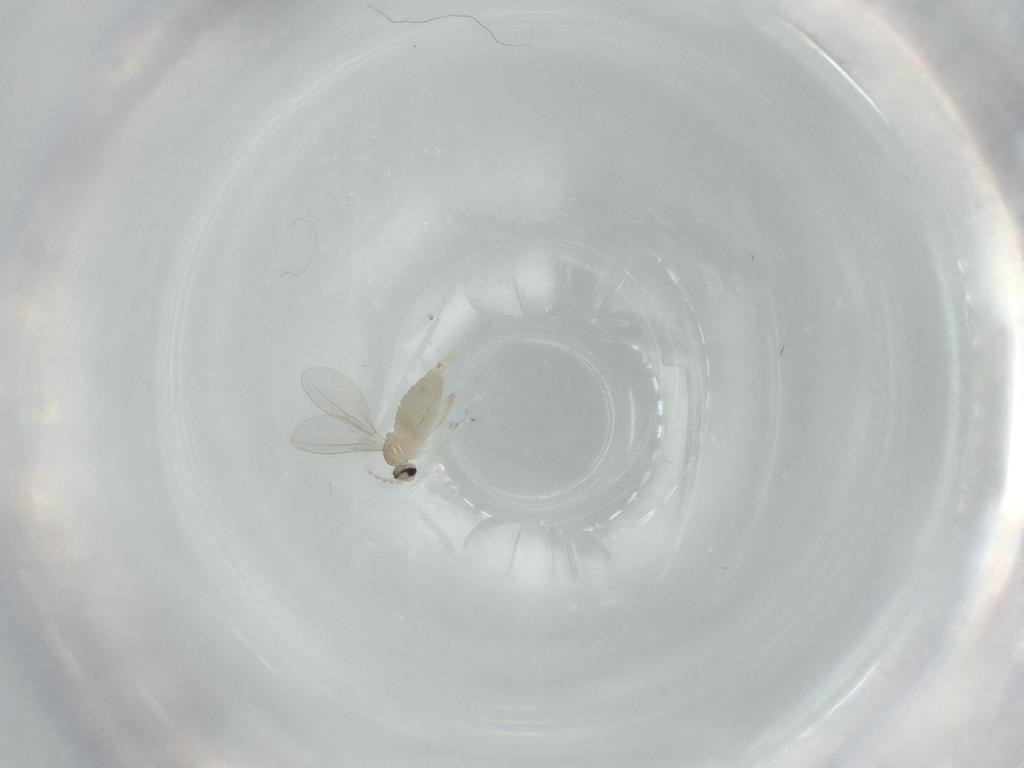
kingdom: Animalia
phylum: Arthropoda
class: Insecta
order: Diptera
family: Cecidomyiidae
